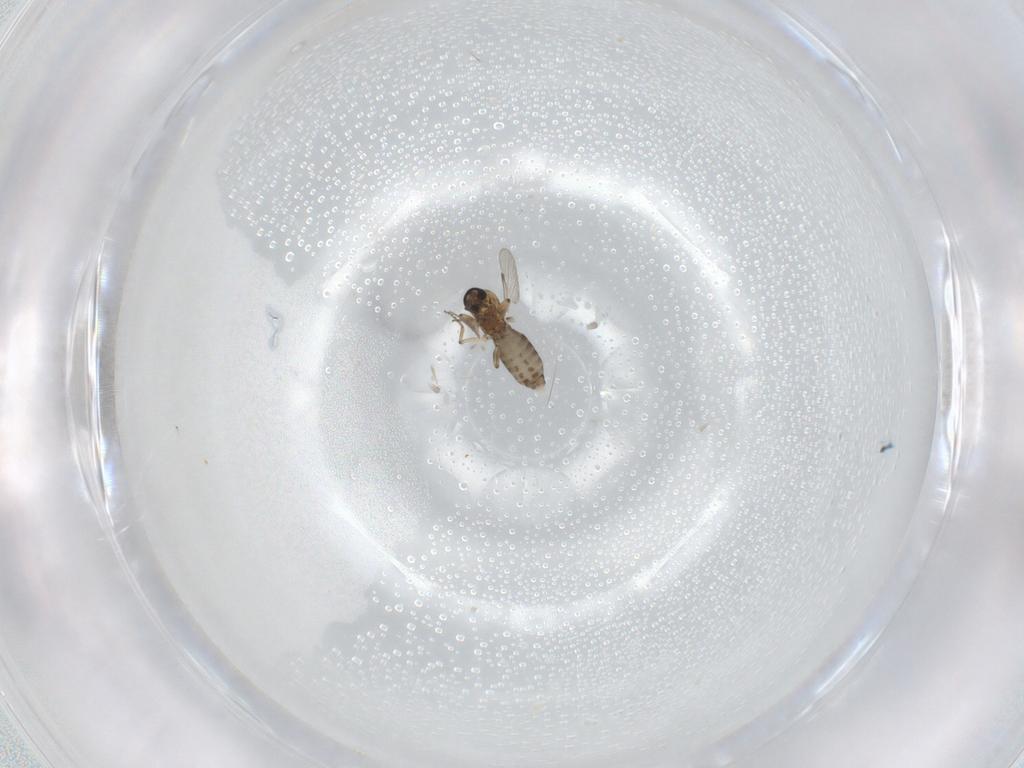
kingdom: Animalia
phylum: Arthropoda
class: Insecta
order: Diptera
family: Ceratopogonidae
